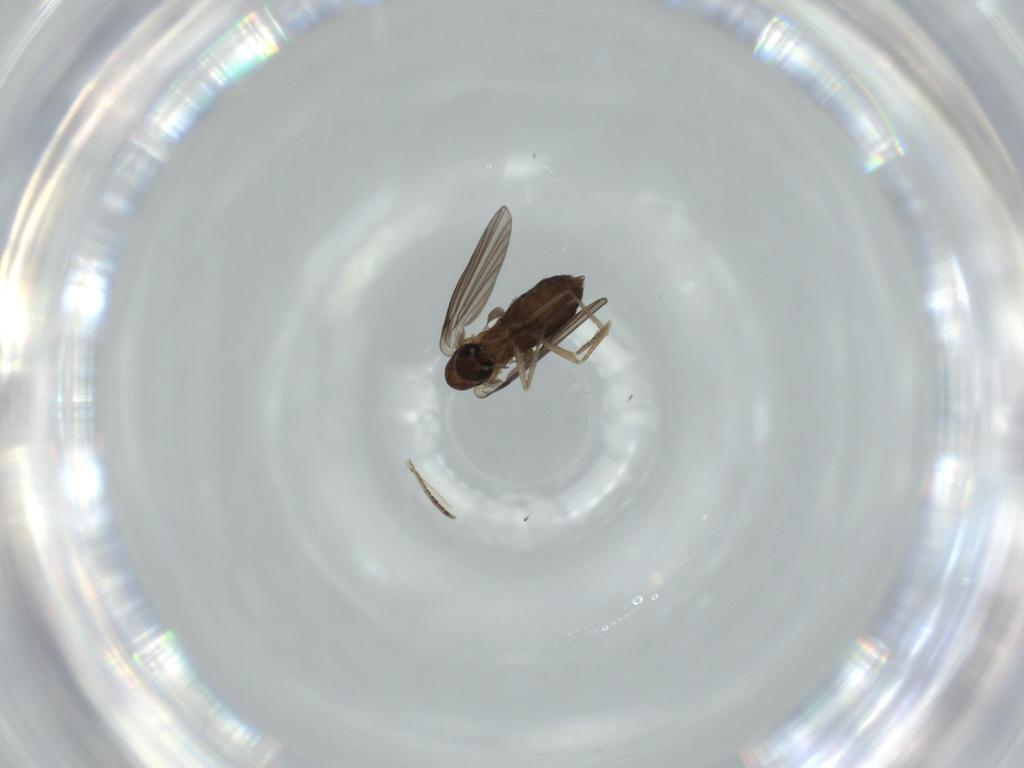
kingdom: Animalia
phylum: Arthropoda
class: Insecta
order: Diptera
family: Psychodidae
